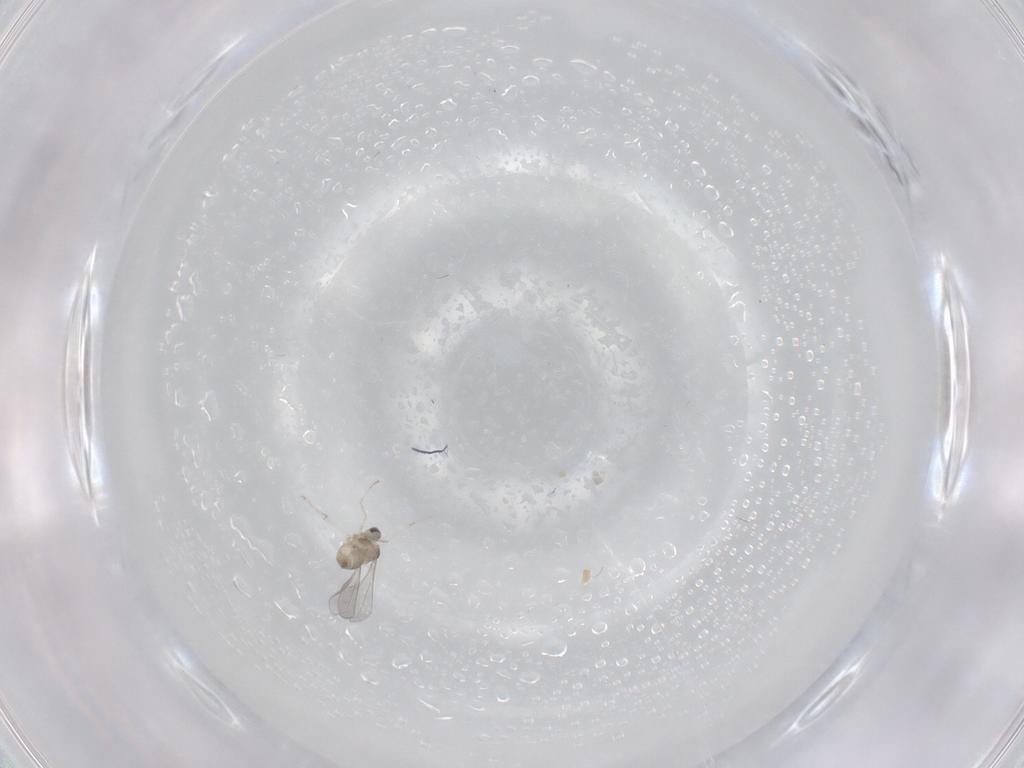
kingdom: Animalia
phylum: Arthropoda
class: Insecta
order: Diptera
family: Cecidomyiidae
